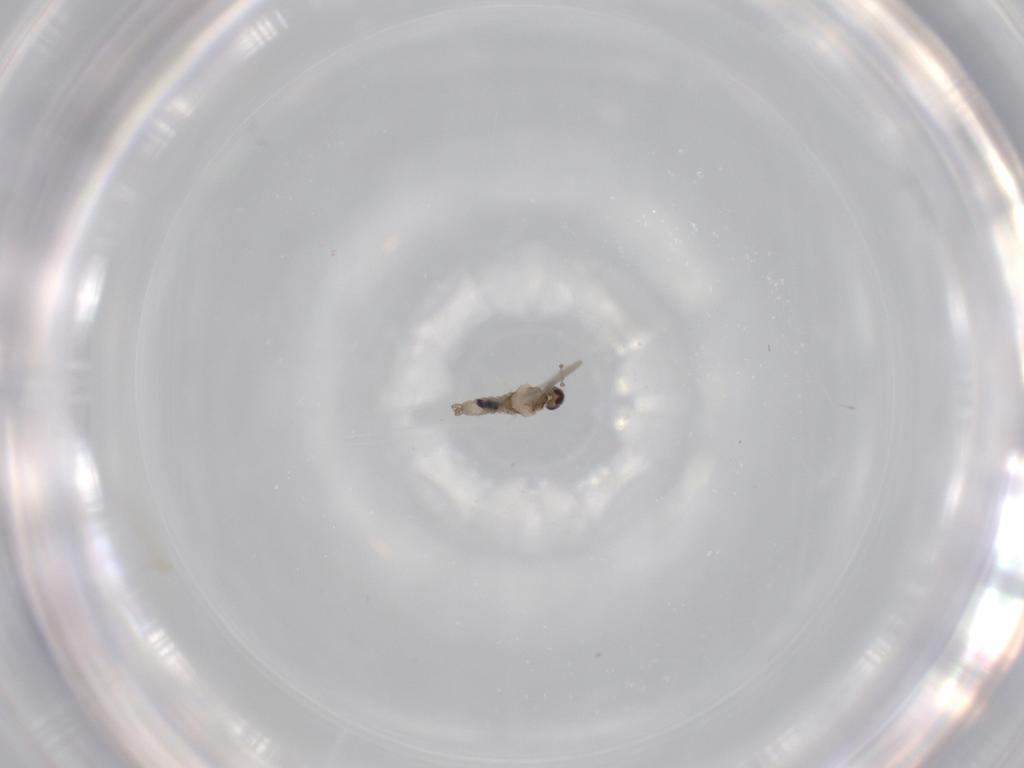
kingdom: Animalia
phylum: Arthropoda
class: Insecta
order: Diptera
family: Cecidomyiidae
